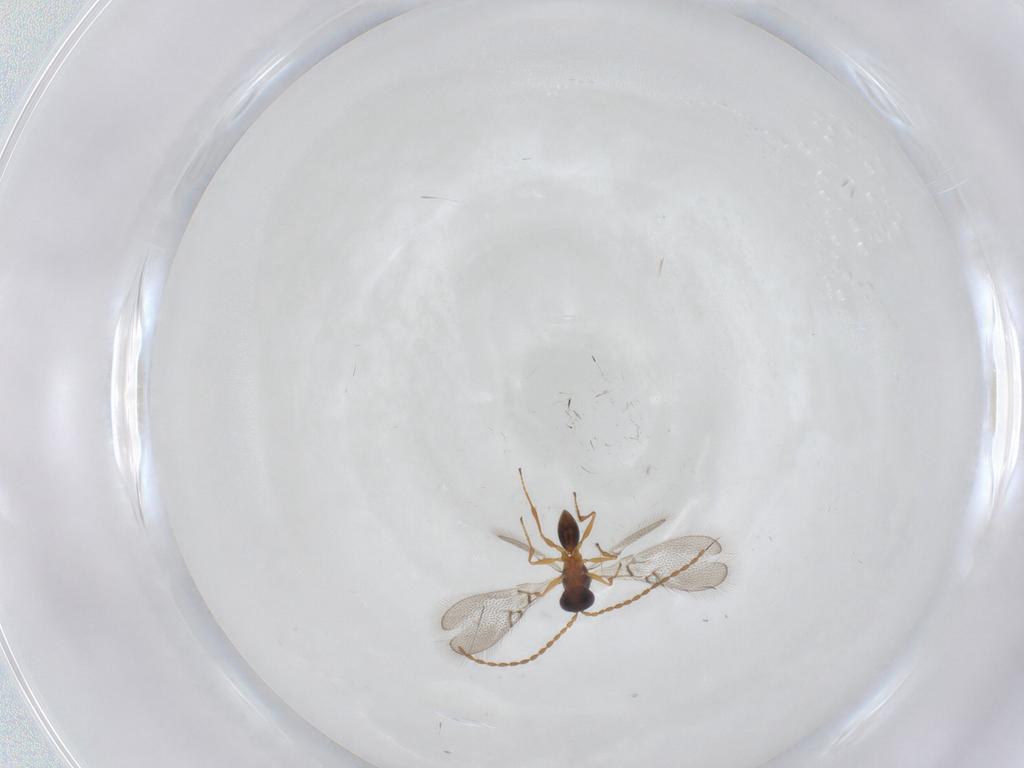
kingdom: Animalia
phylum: Arthropoda
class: Insecta
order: Hymenoptera
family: Figitidae
